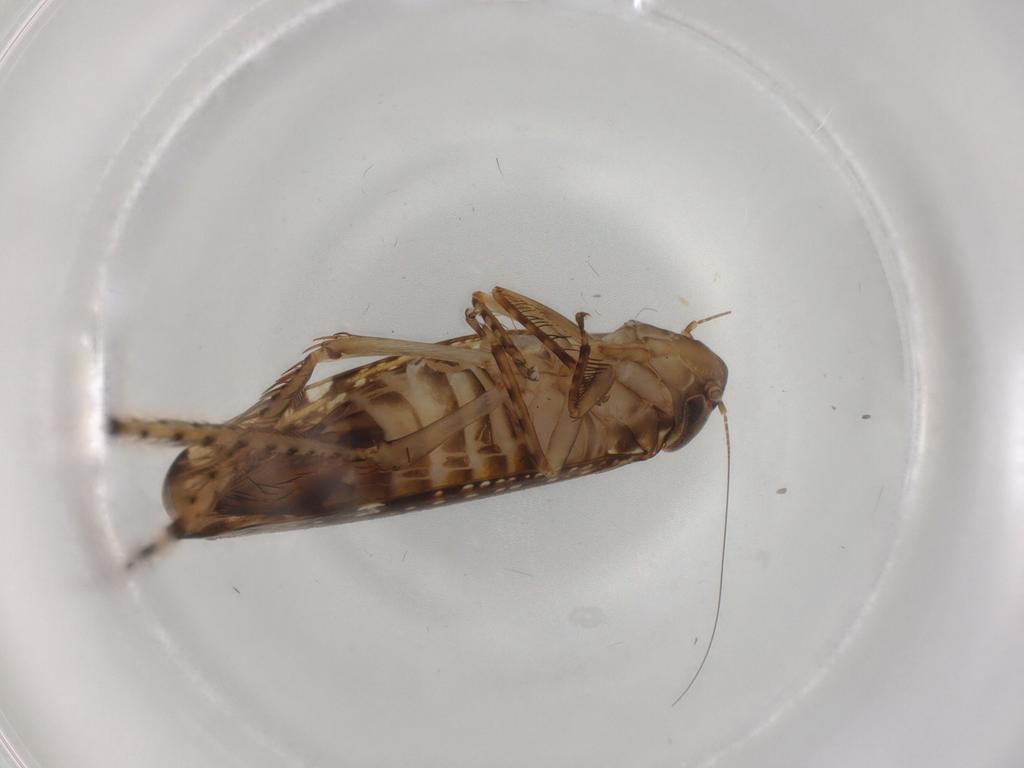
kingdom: Animalia
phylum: Arthropoda
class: Insecta
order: Hemiptera
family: Cicadellidae
